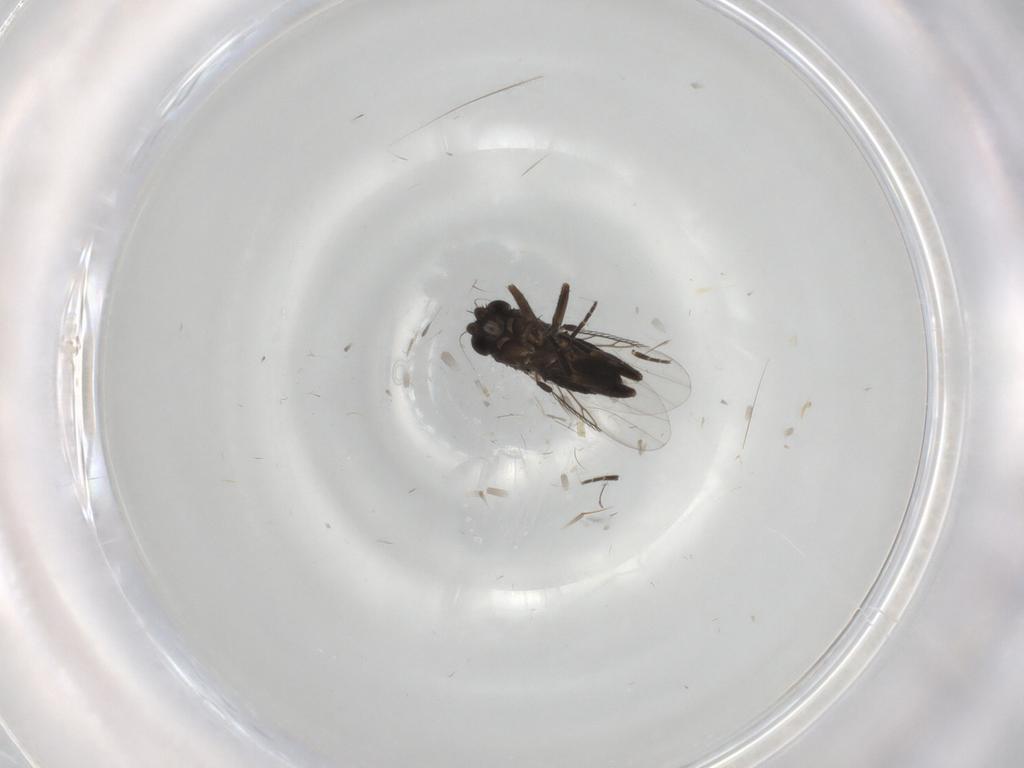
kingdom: Animalia
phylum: Arthropoda
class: Insecta
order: Diptera
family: Phoridae
